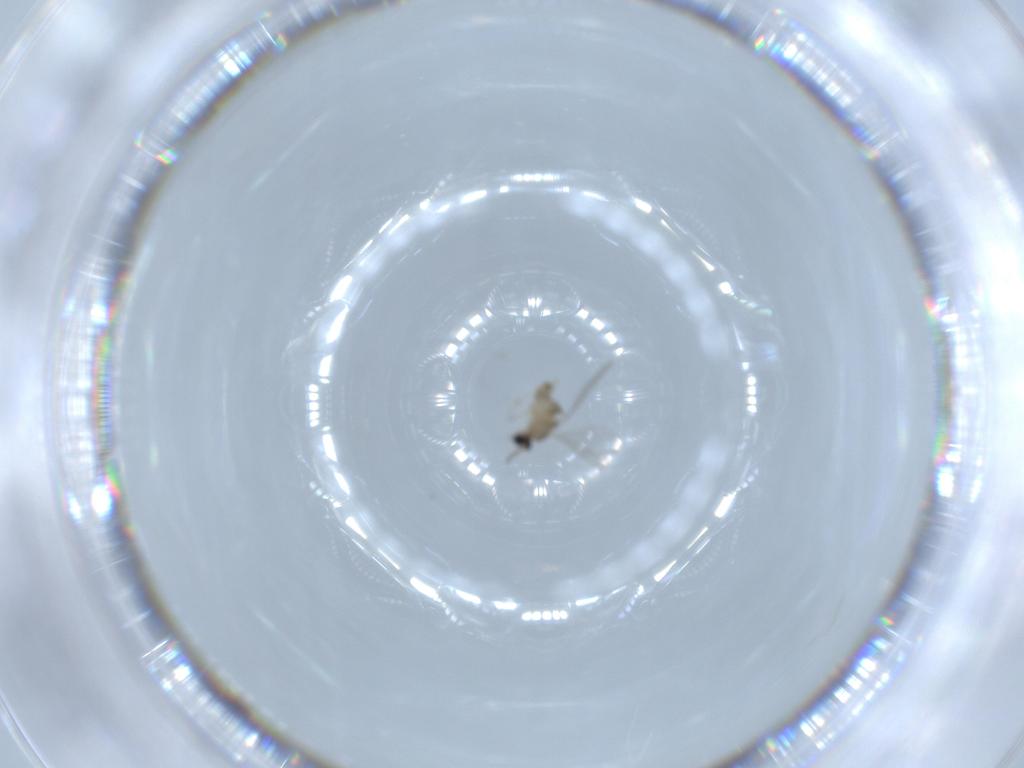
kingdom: Animalia
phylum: Arthropoda
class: Insecta
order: Diptera
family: Cecidomyiidae
